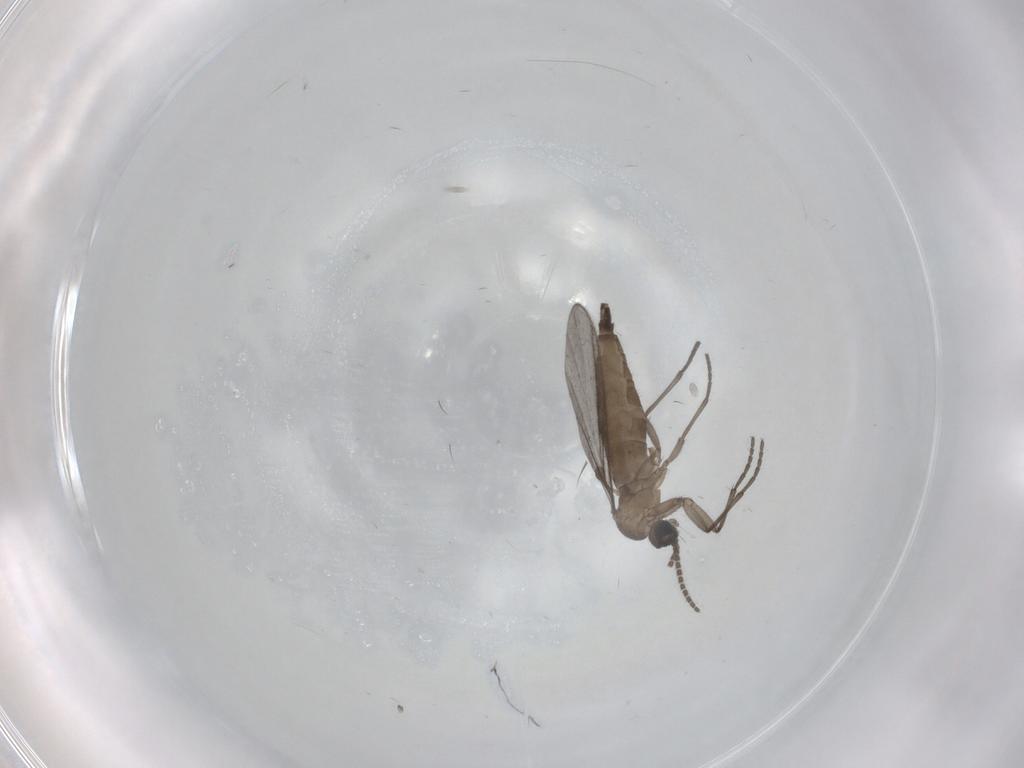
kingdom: Animalia
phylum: Arthropoda
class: Insecta
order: Diptera
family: Sciaridae
